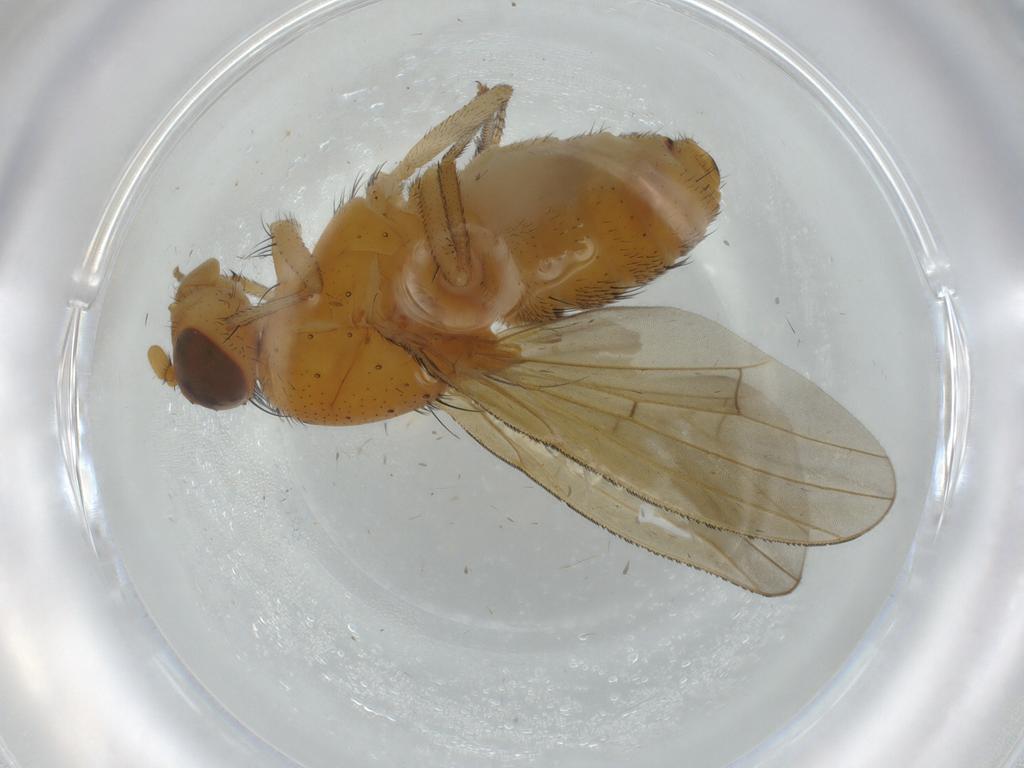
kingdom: Animalia
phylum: Arthropoda
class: Insecta
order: Diptera
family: Lauxaniidae
